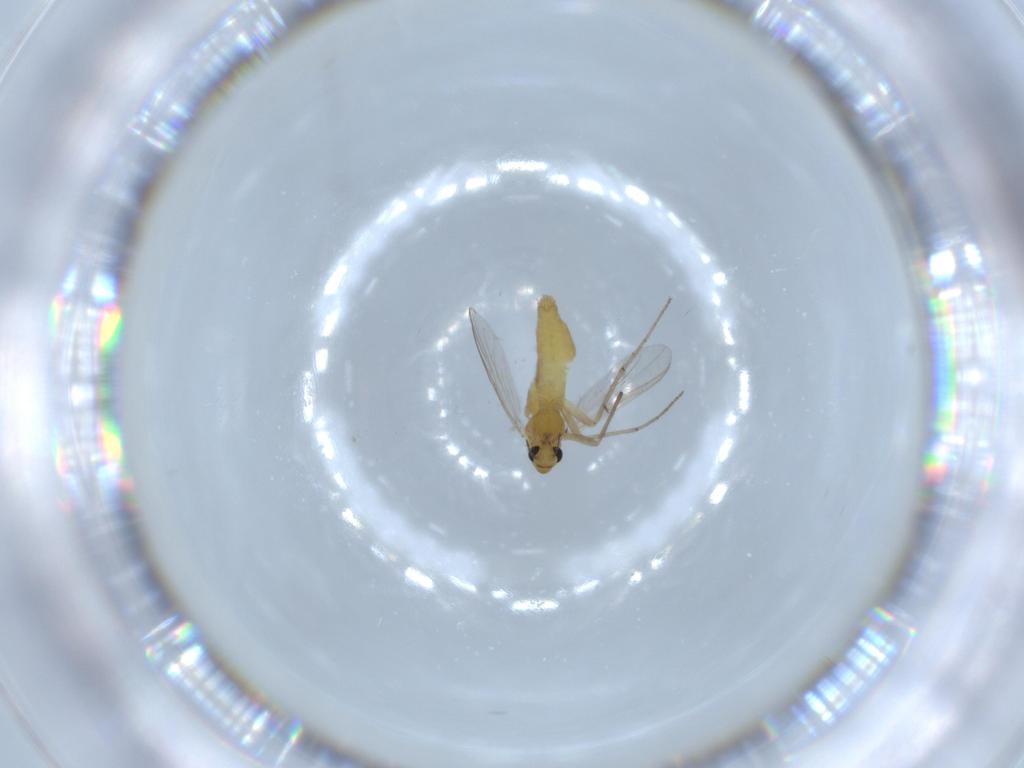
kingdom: Animalia
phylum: Arthropoda
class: Insecta
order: Diptera
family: Chironomidae
